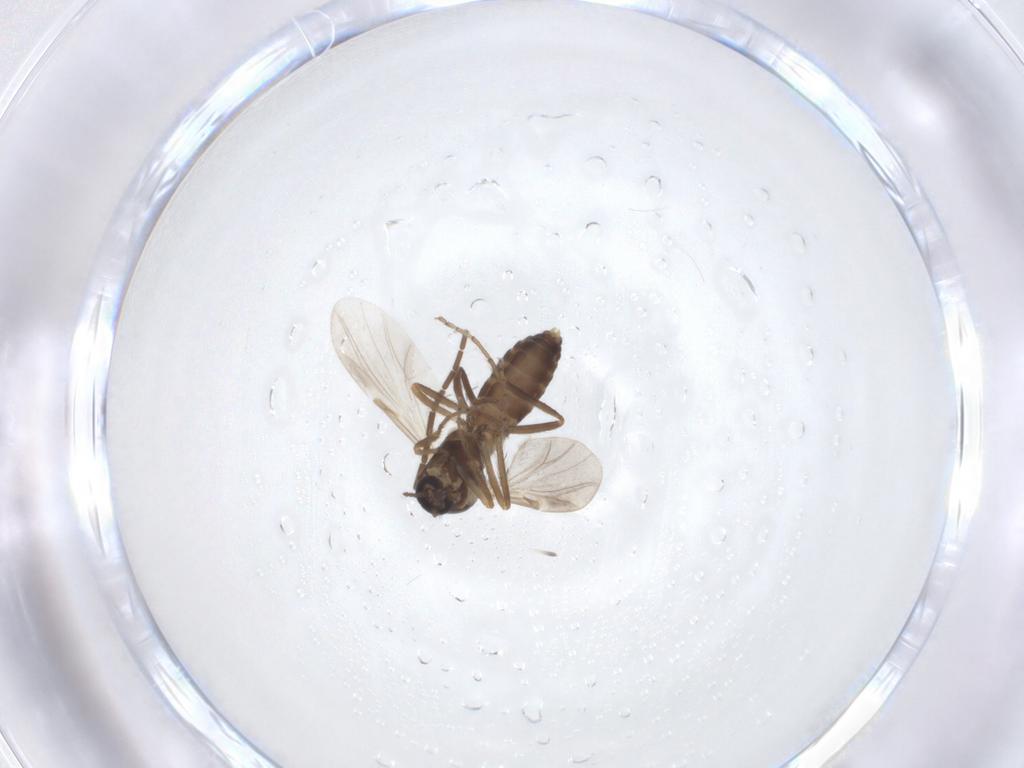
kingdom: Animalia
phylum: Arthropoda
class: Insecta
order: Diptera
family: Ceratopogonidae
